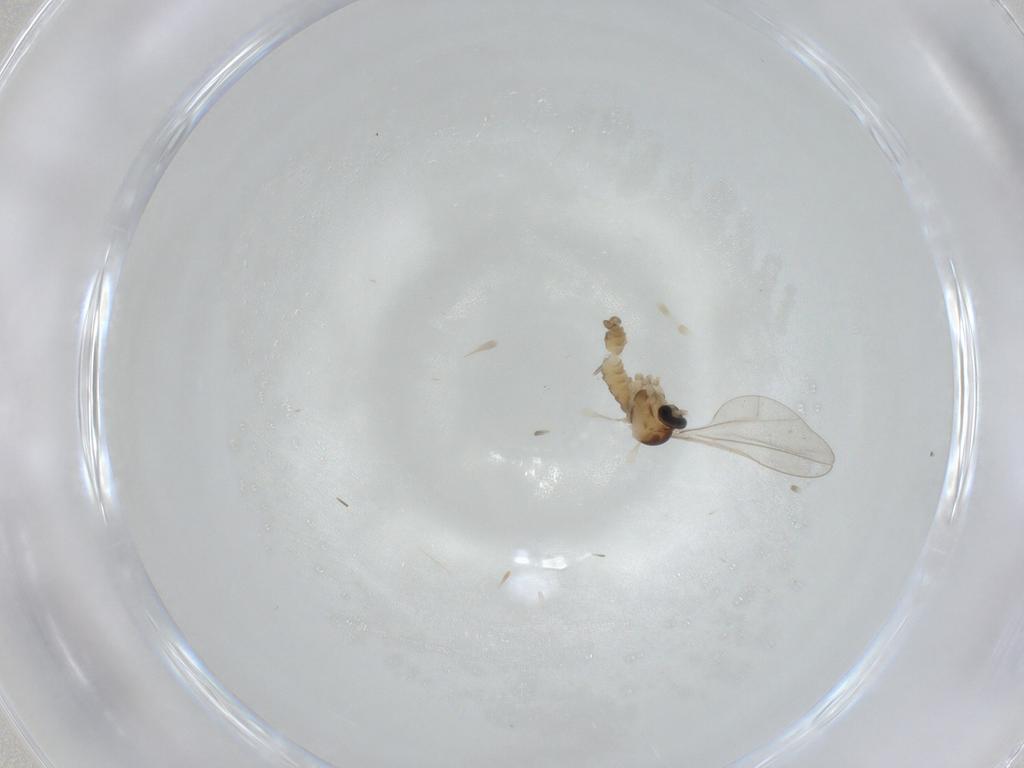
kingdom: Animalia
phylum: Arthropoda
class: Insecta
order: Diptera
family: Cecidomyiidae
